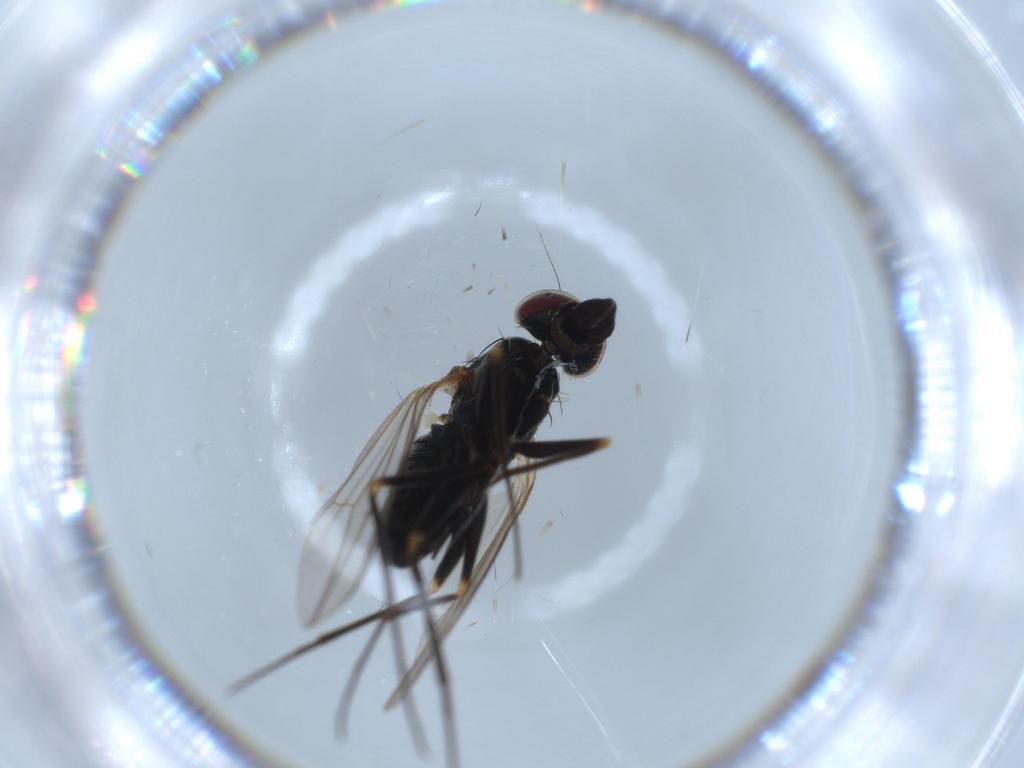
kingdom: Animalia
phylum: Arthropoda
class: Insecta
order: Diptera
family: Dolichopodidae
